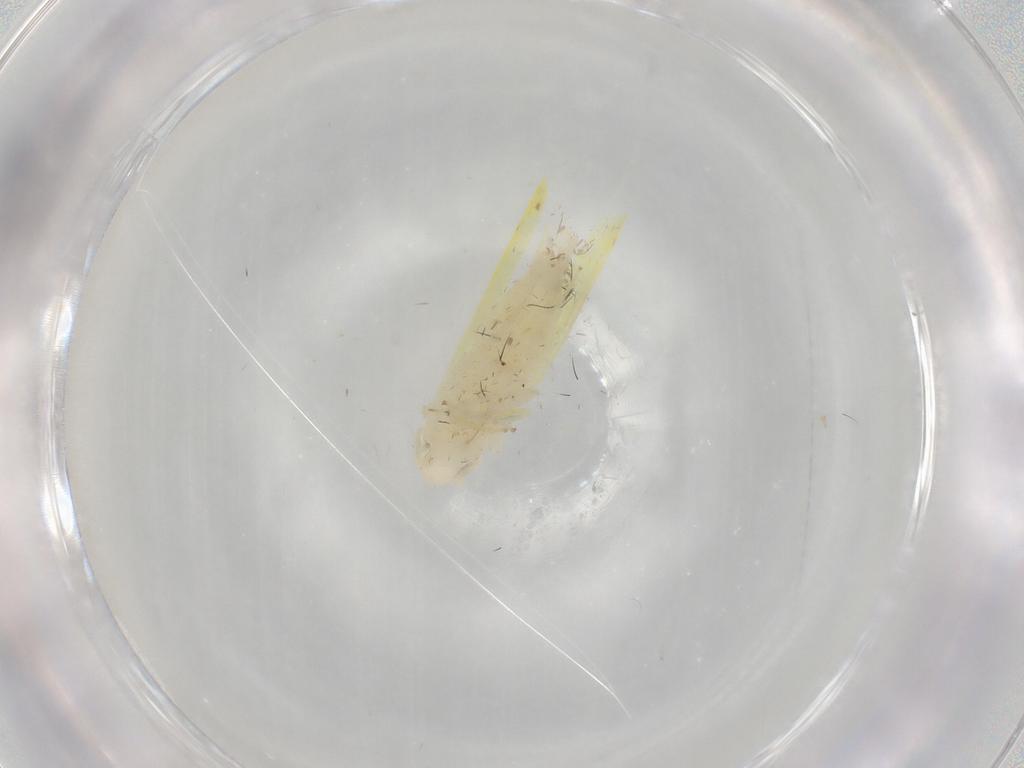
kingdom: Animalia
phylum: Arthropoda
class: Insecta
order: Hemiptera
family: Cicadellidae
